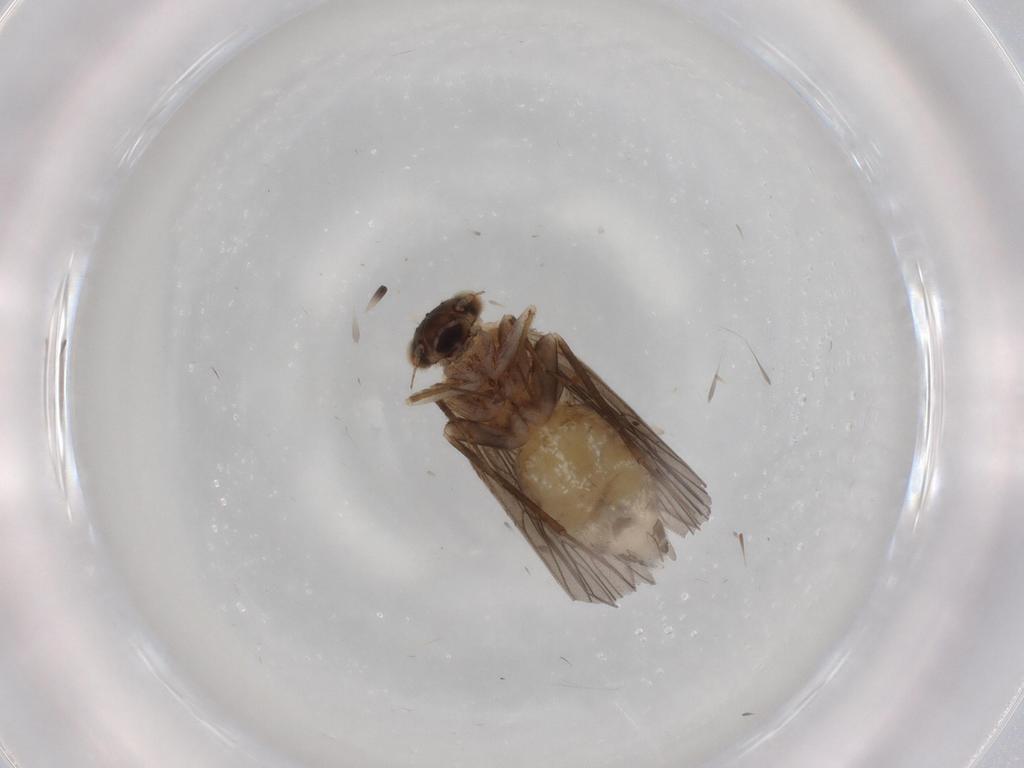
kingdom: Animalia
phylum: Arthropoda
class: Insecta
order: Psocodea
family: Lepidopsocidae
